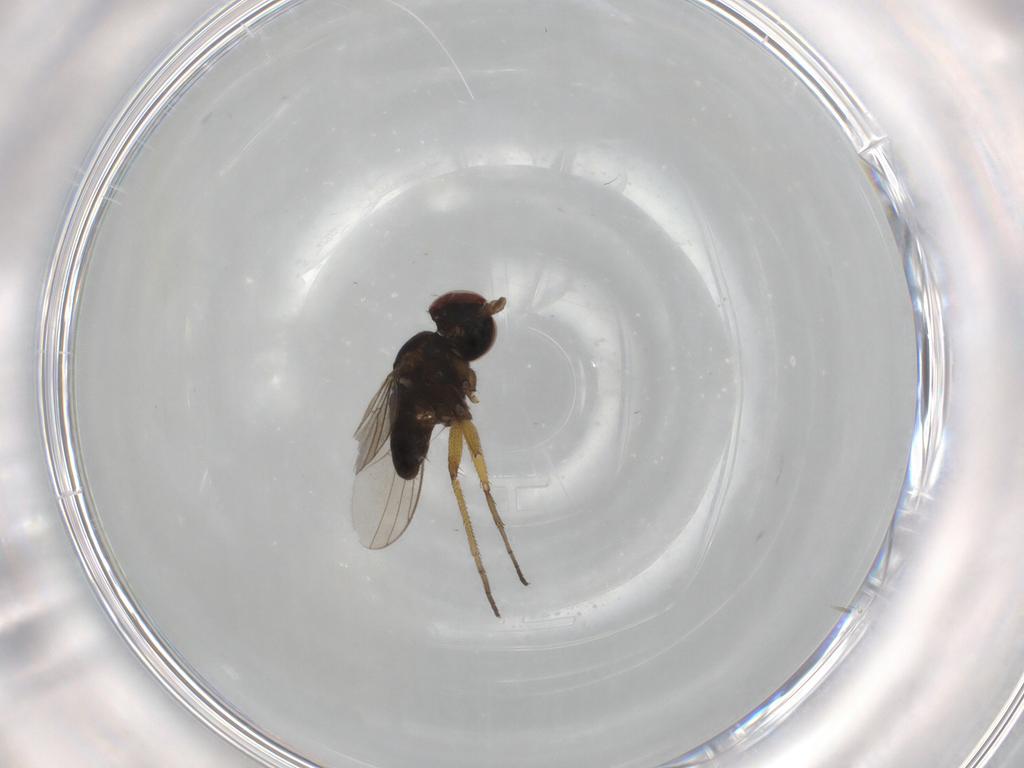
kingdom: Animalia
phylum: Arthropoda
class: Insecta
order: Diptera
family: Dolichopodidae
